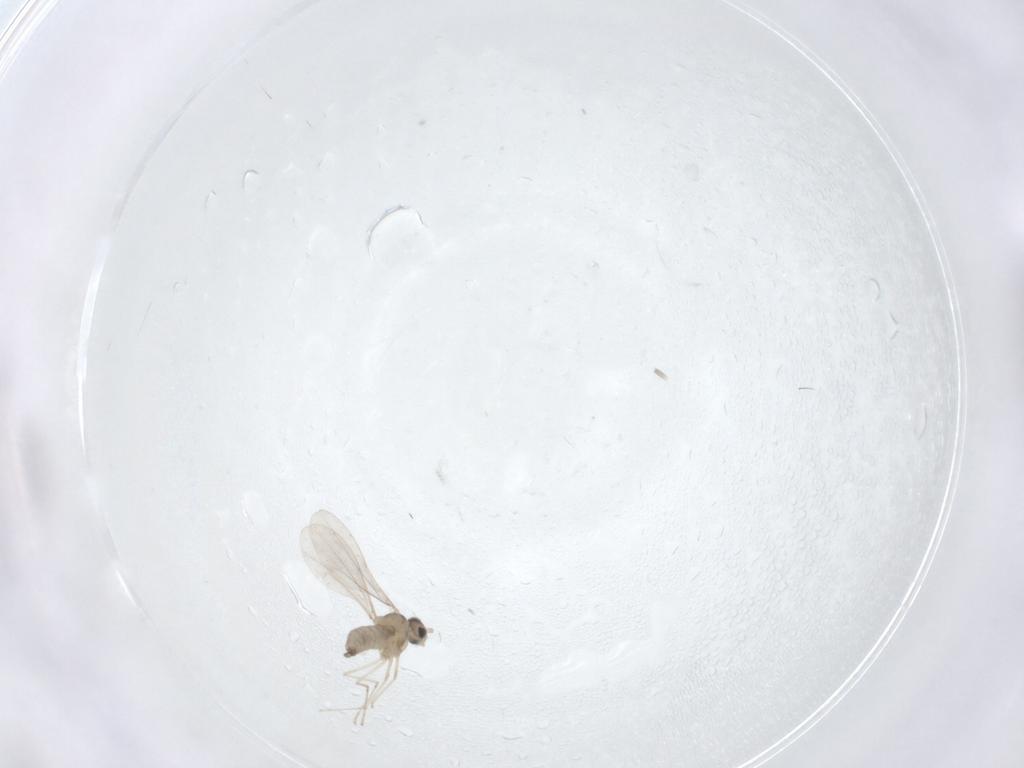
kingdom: Animalia
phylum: Arthropoda
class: Insecta
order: Diptera
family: Cecidomyiidae
